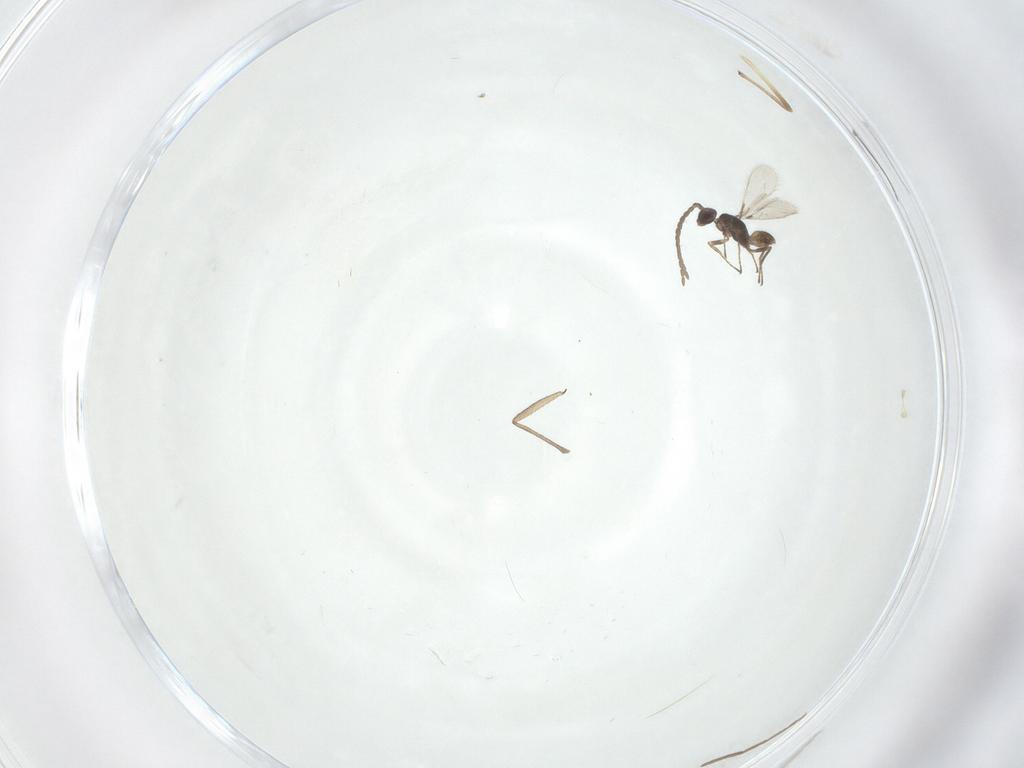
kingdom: Animalia
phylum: Arthropoda
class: Insecta
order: Diptera
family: Sciaridae
